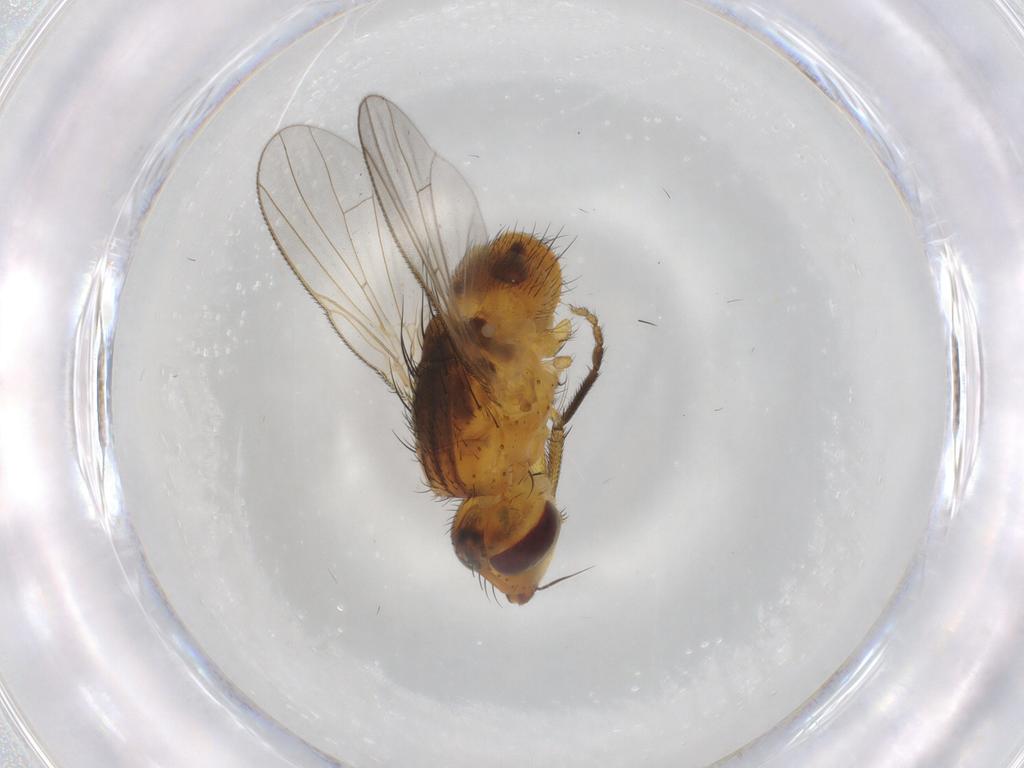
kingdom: Animalia
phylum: Arthropoda
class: Insecta
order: Diptera
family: Muscidae
